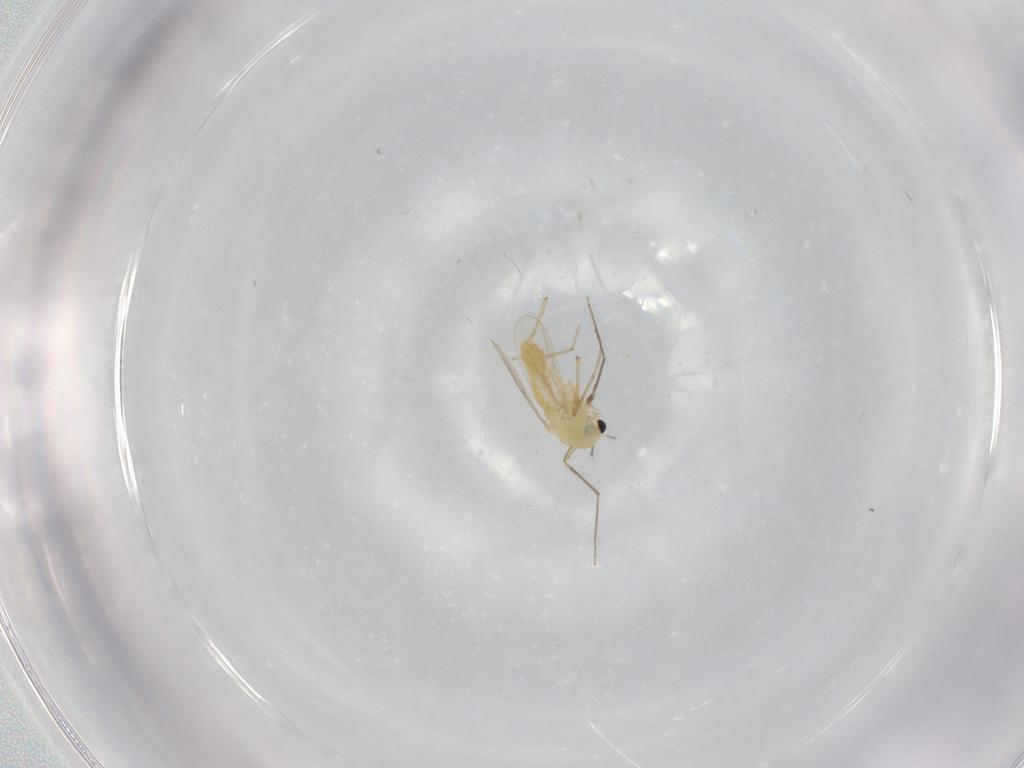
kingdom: Animalia
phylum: Arthropoda
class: Insecta
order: Diptera
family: Chironomidae
